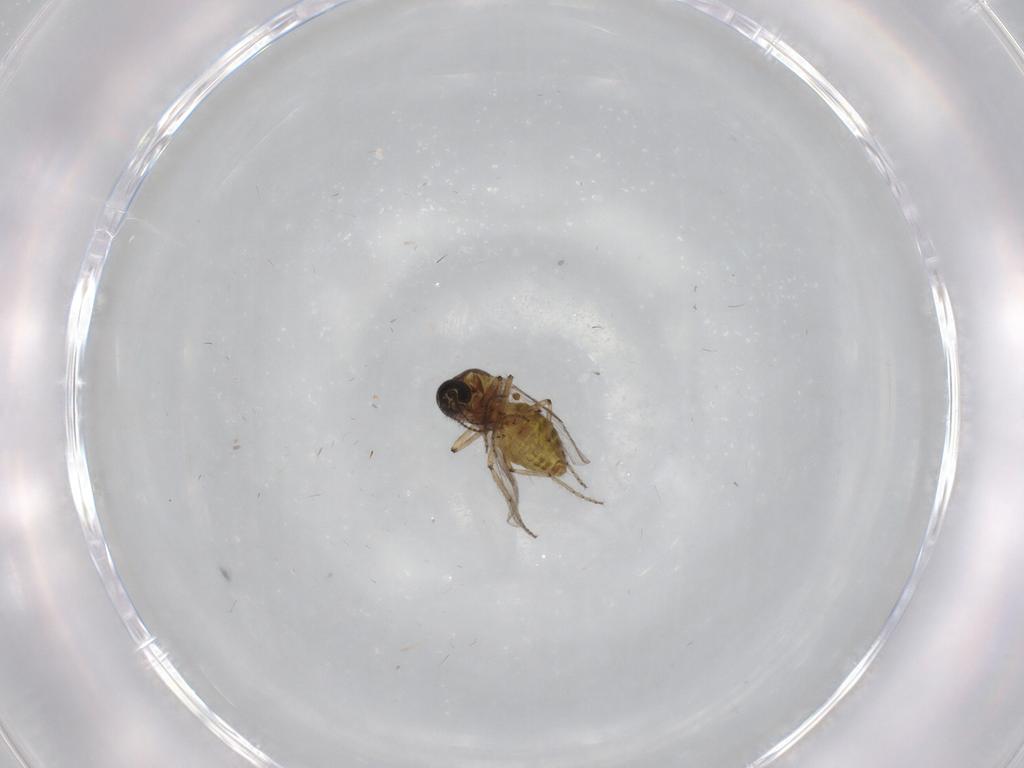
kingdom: Animalia
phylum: Arthropoda
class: Insecta
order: Diptera
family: Ceratopogonidae
